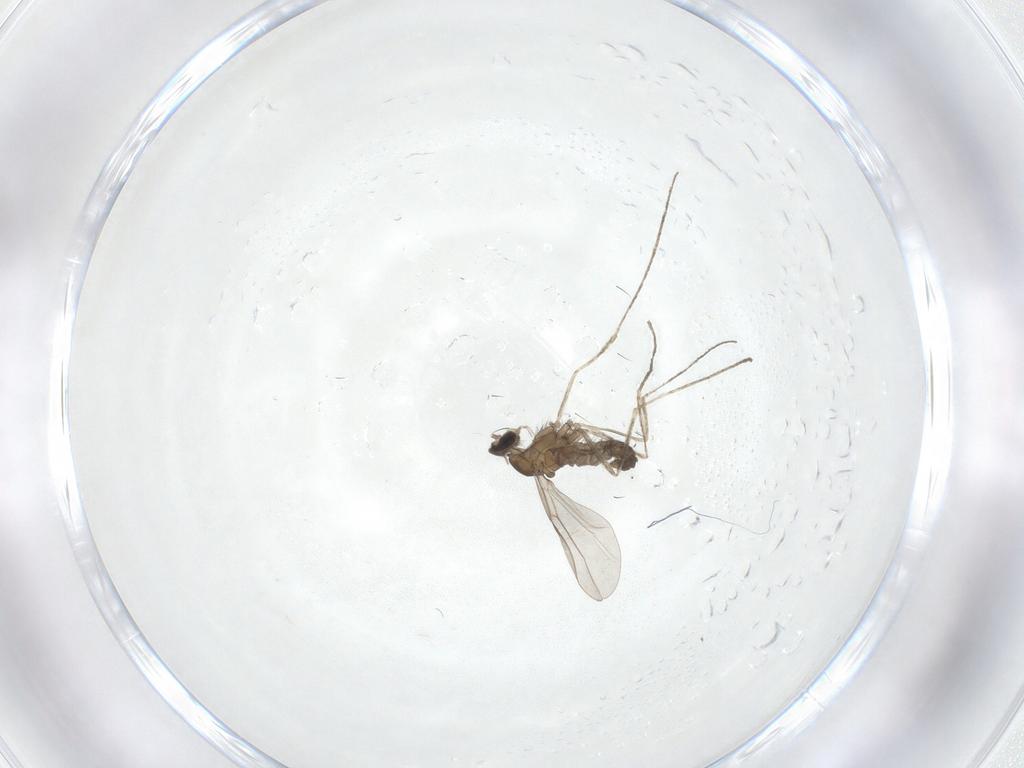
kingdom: Animalia
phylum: Arthropoda
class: Insecta
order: Diptera
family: Cecidomyiidae
